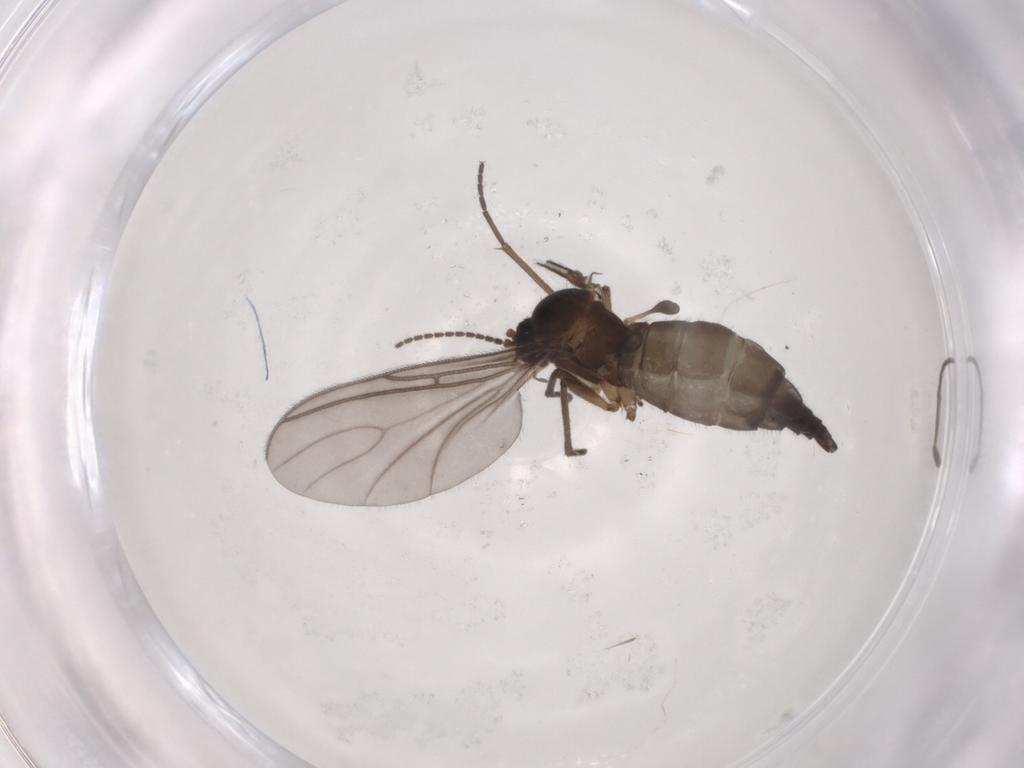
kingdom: Animalia
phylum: Arthropoda
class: Insecta
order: Diptera
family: Sciaridae
